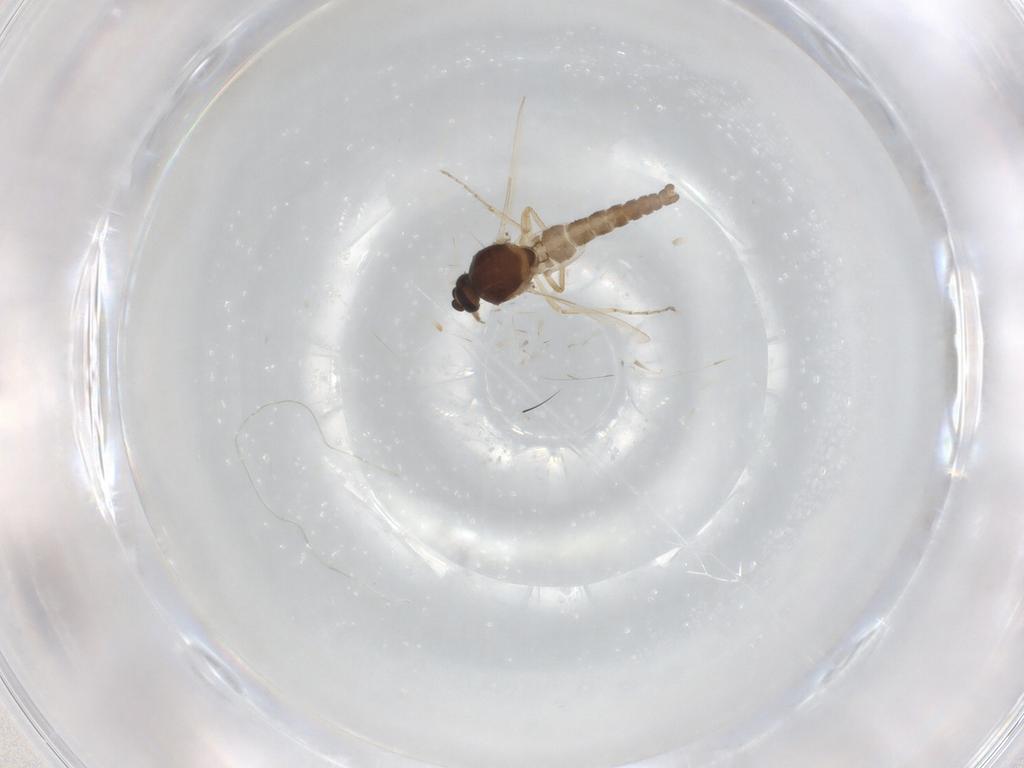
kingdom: Animalia
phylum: Arthropoda
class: Insecta
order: Diptera
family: Ceratopogonidae
